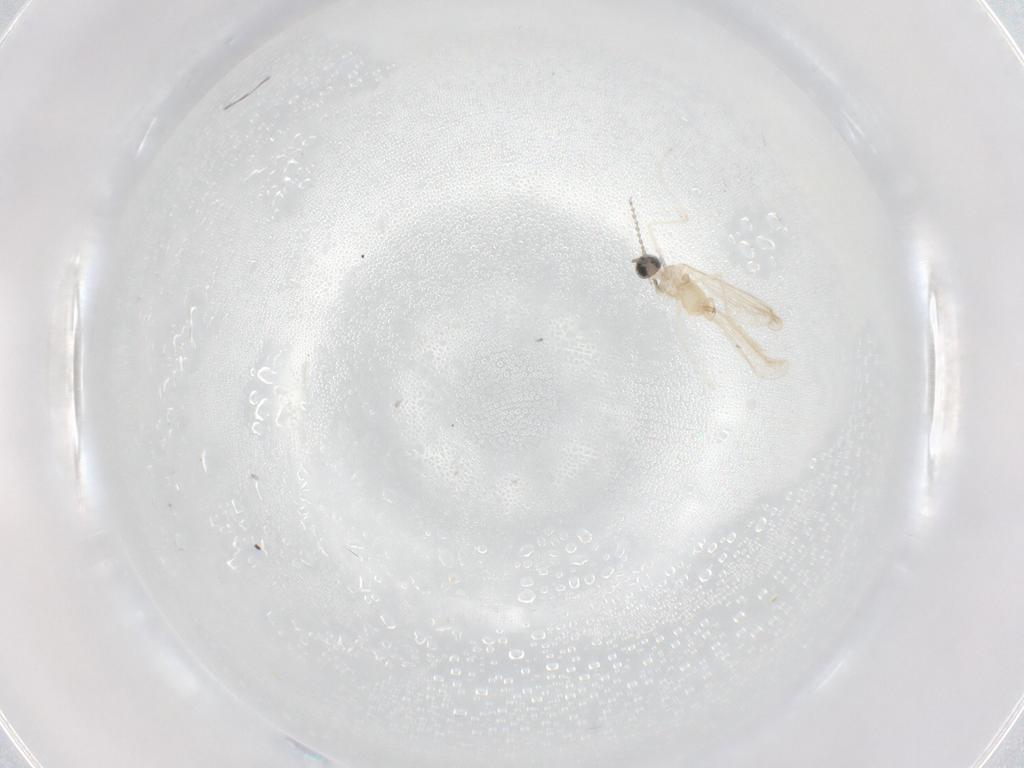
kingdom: Animalia
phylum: Arthropoda
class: Insecta
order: Diptera
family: Cecidomyiidae
